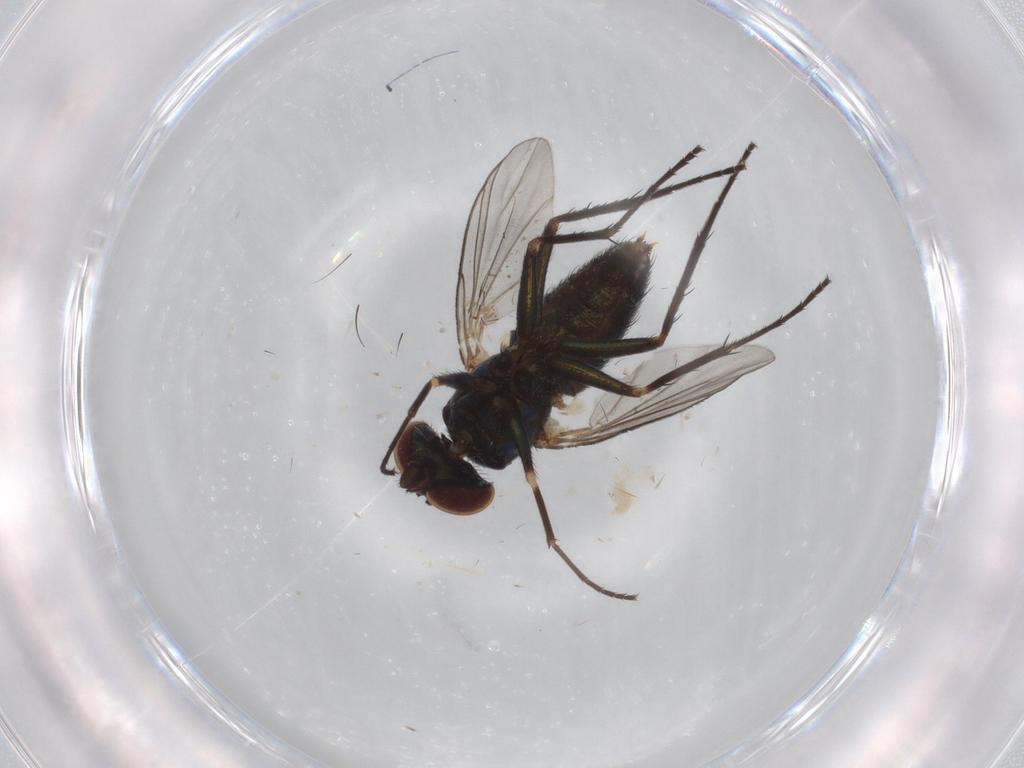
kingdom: Animalia
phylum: Arthropoda
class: Insecta
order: Diptera
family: Dolichopodidae
